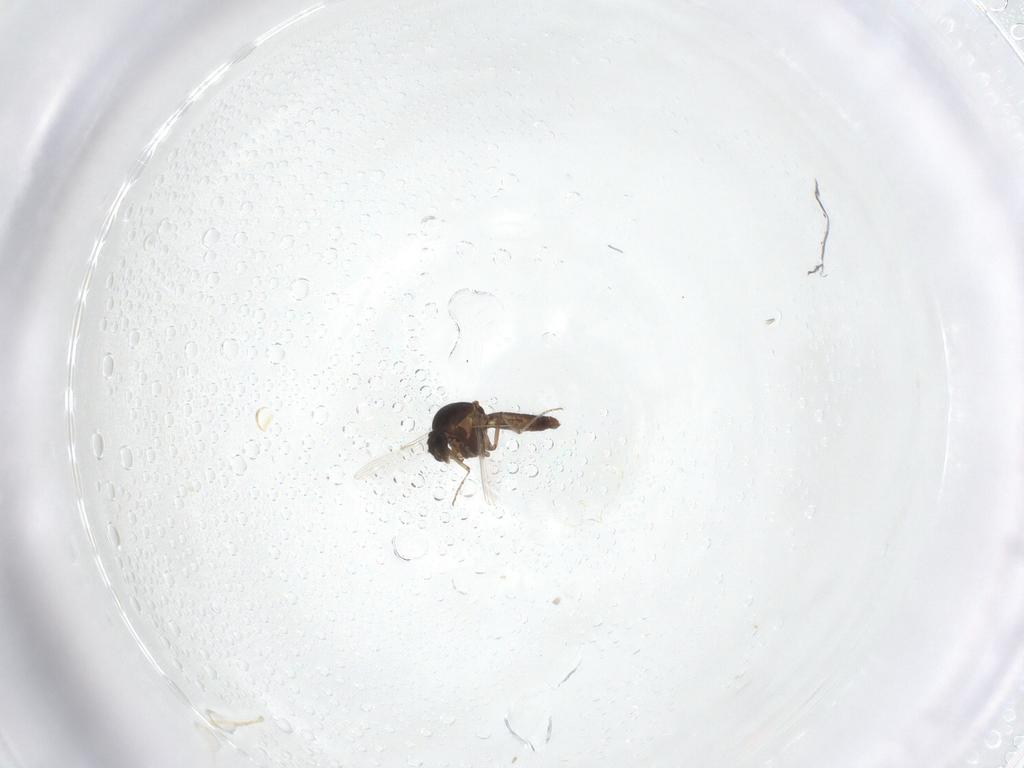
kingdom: Animalia
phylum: Arthropoda
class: Insecta
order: Diptera
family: Ceratopogonidae
